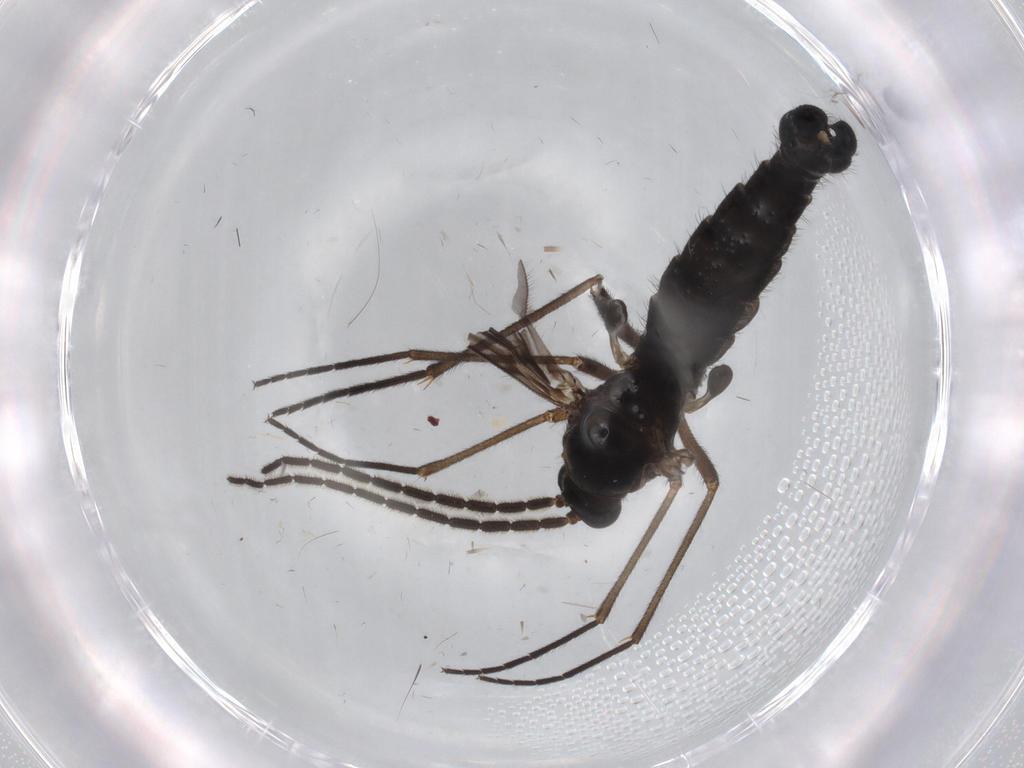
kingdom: Animalia
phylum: Arthropoda
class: Insecta
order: Diptera
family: Sciaridae
